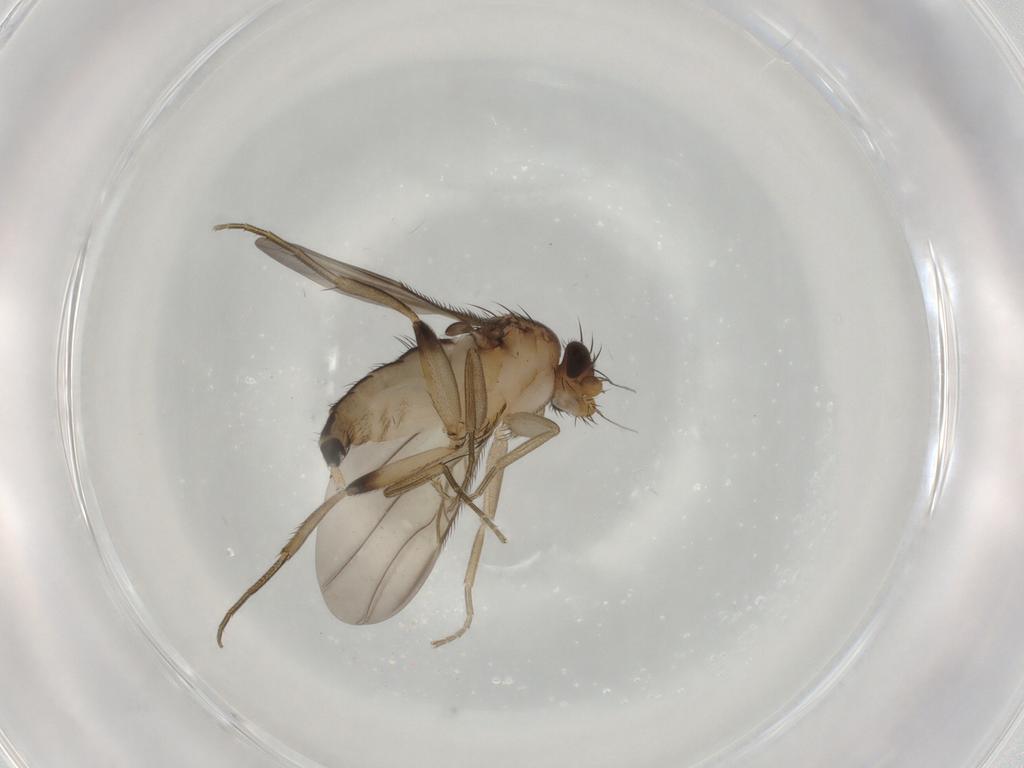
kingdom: Animalia
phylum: Arthropoda
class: Insecta
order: Diptera
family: Phoridae
